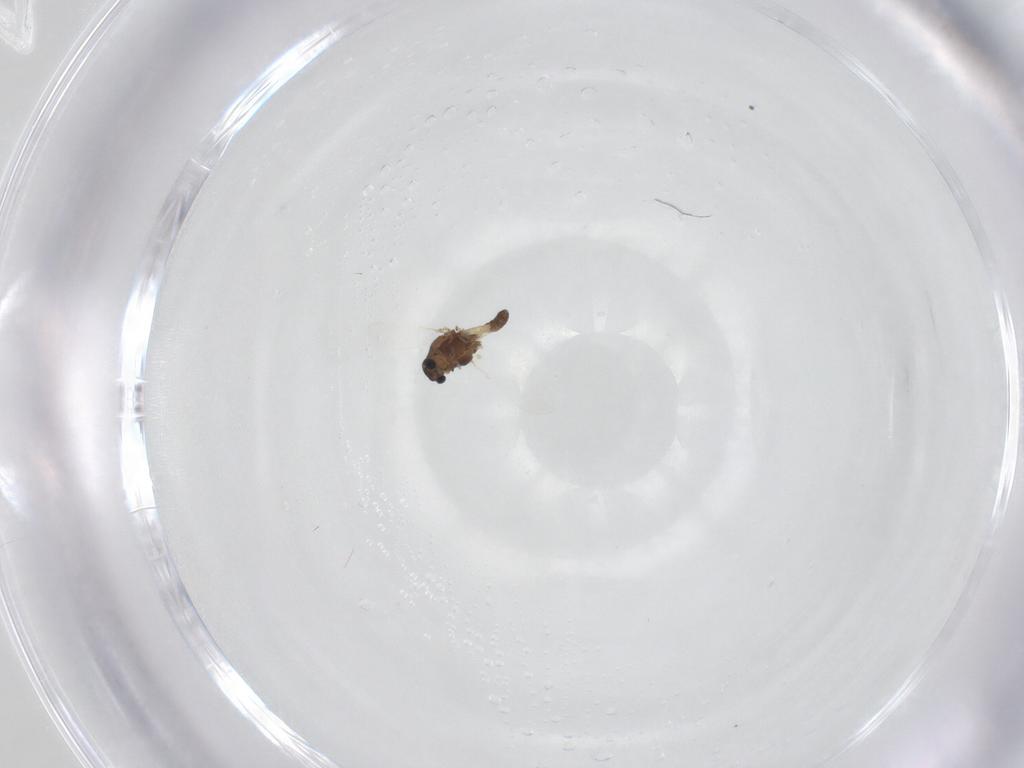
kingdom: Animalia
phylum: Arthropoda
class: Insecta
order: Diptera
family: Chironomidae
